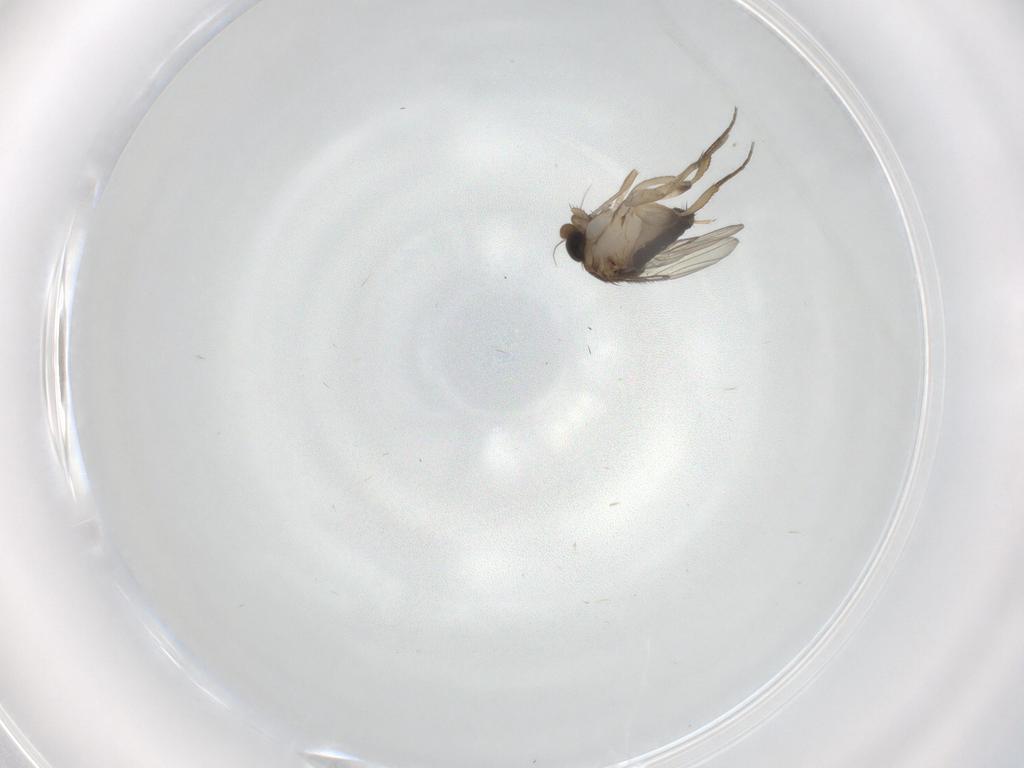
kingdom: Animalia
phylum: Arthropoda
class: Insecta
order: Diptera
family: Phoridae
